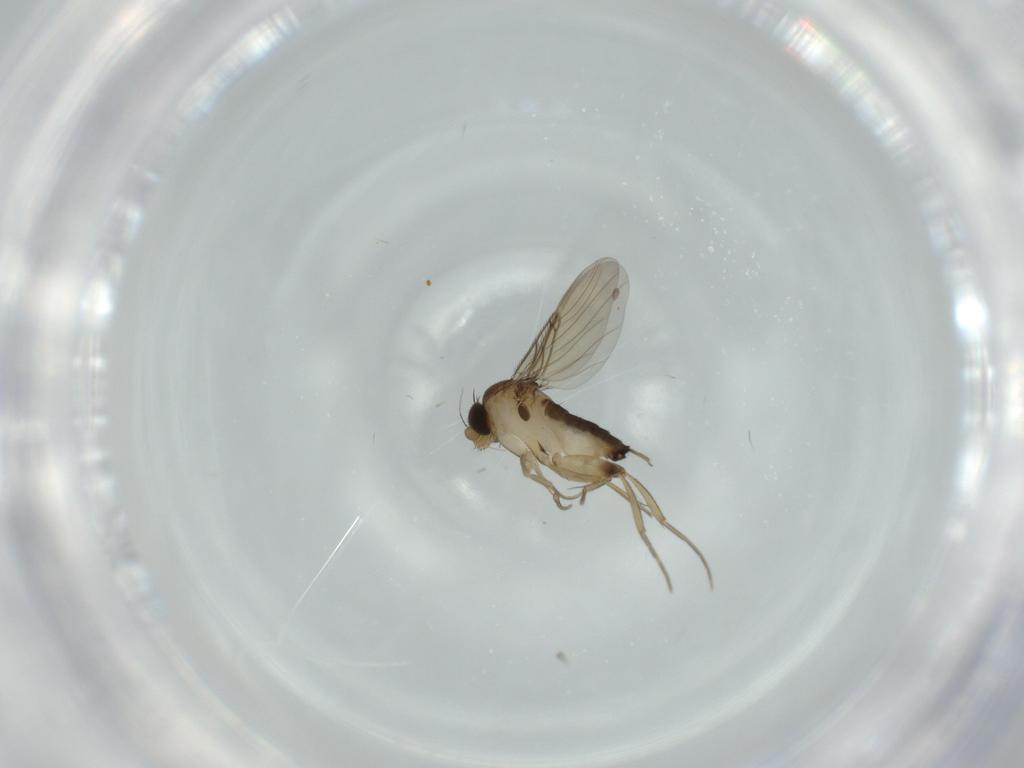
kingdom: Animalia
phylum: Arthropoda
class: Insecta
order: Diptera
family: Phoridae
